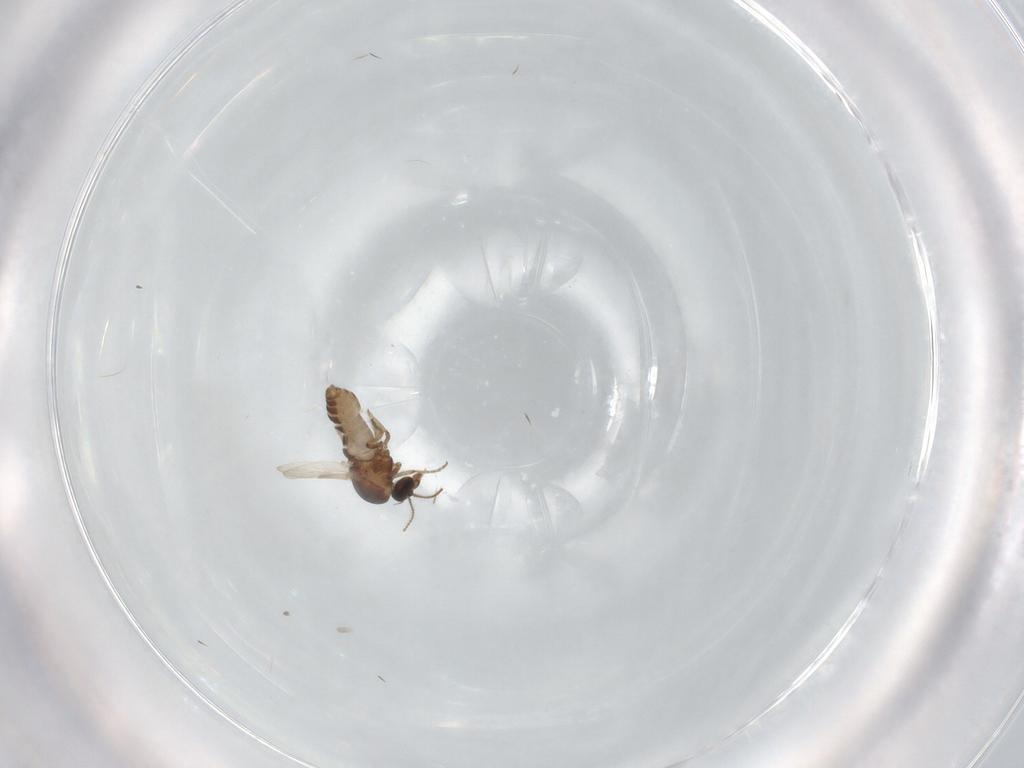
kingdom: Animalia
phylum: Arthropoda
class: Insecta
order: Diptera
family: Ceratopogonidae
